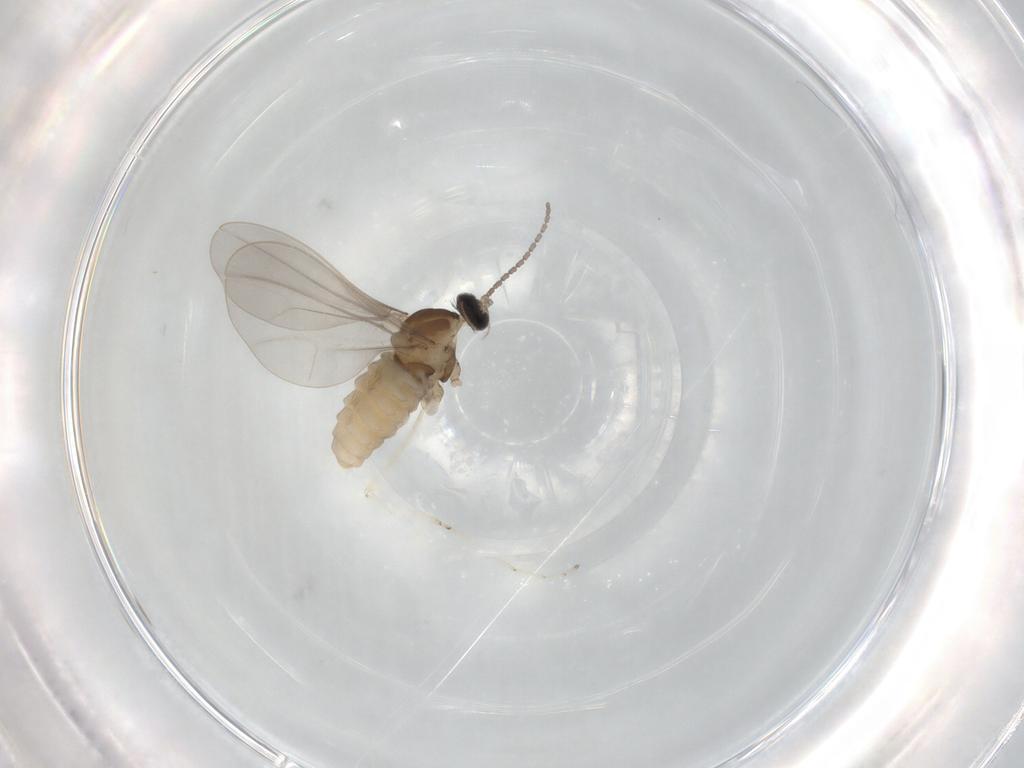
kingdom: Animalia
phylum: Arthropoda
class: Insecta
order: Diptera
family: Cecidomyiidae
